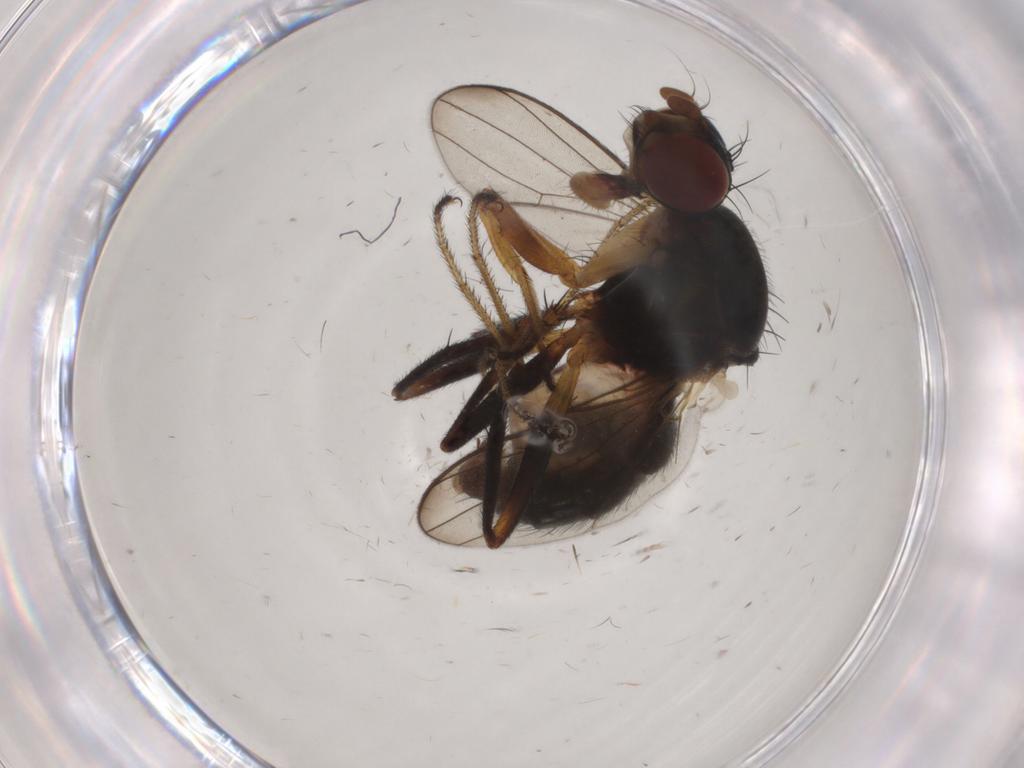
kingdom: Animalia
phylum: Arthropoda
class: Insecta
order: Diptera
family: Sepsidae
